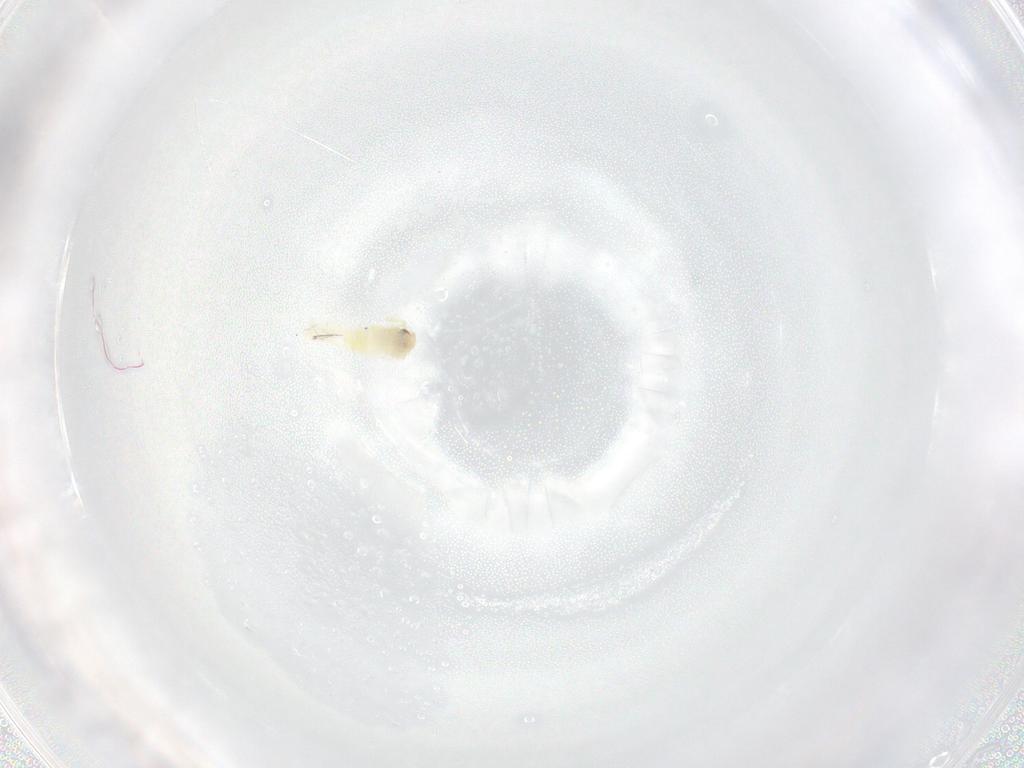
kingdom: Animalia
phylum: Arthropoda
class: Insecta
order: Hemiptera
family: Aleyrodidae
